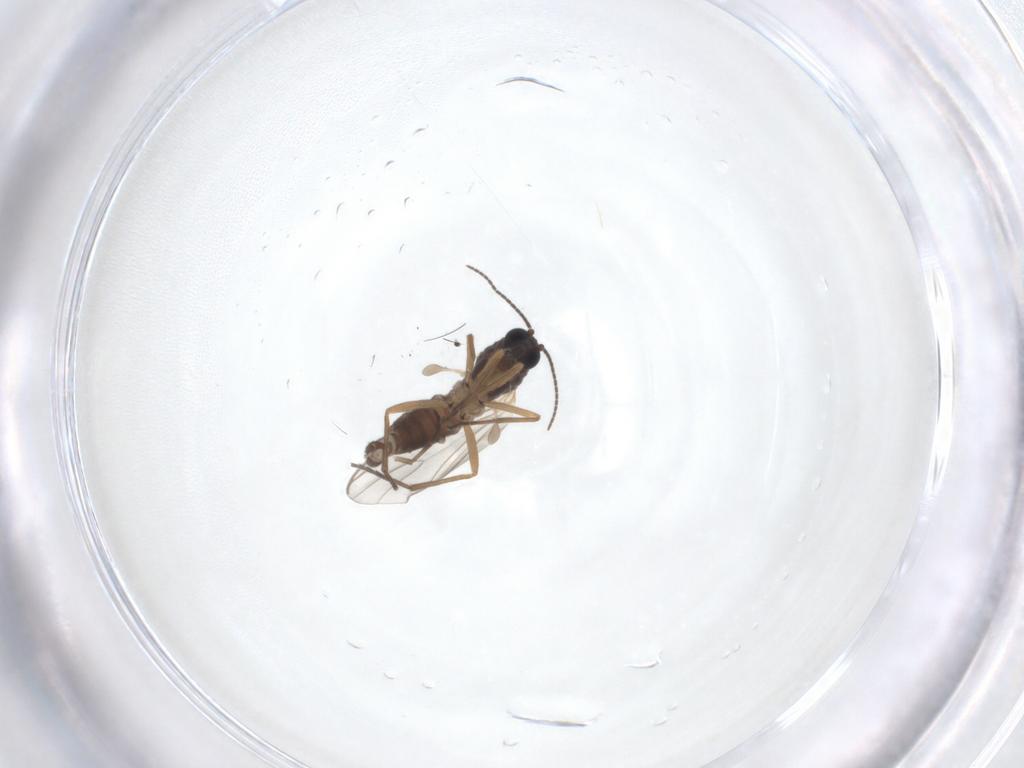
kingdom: Animalia
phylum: Arthropoda
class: Insecta
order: Diptera
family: Sciaridae
